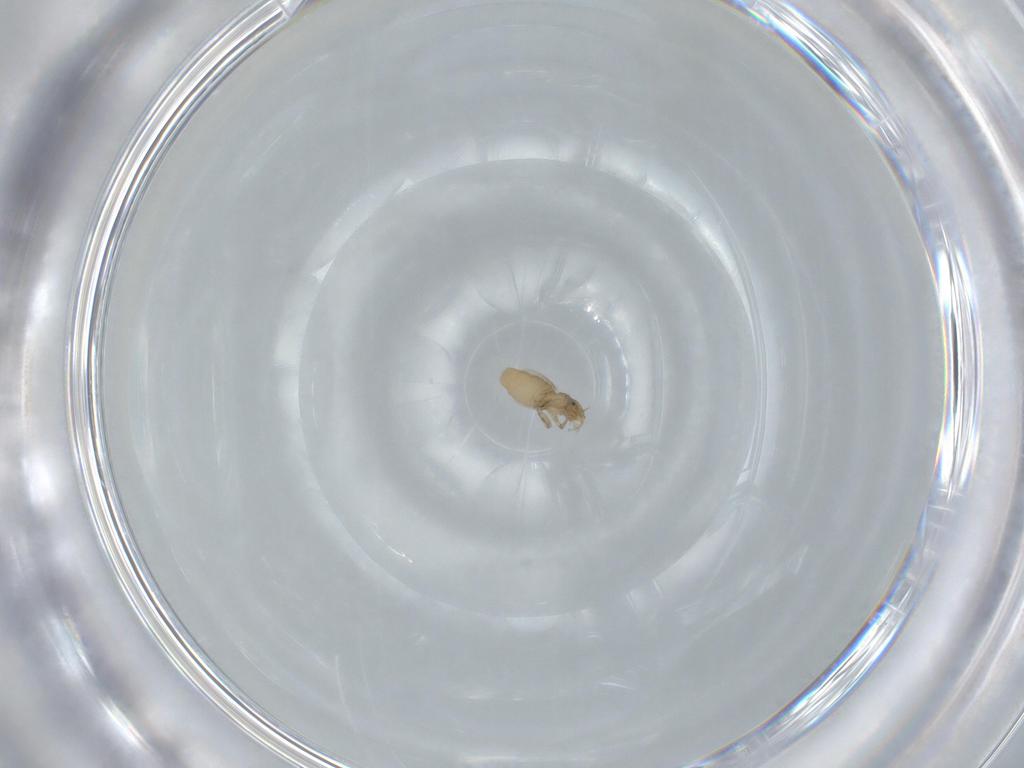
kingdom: Animalia
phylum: Arthropoda
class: Insecta
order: Diptera
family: Phoridae
